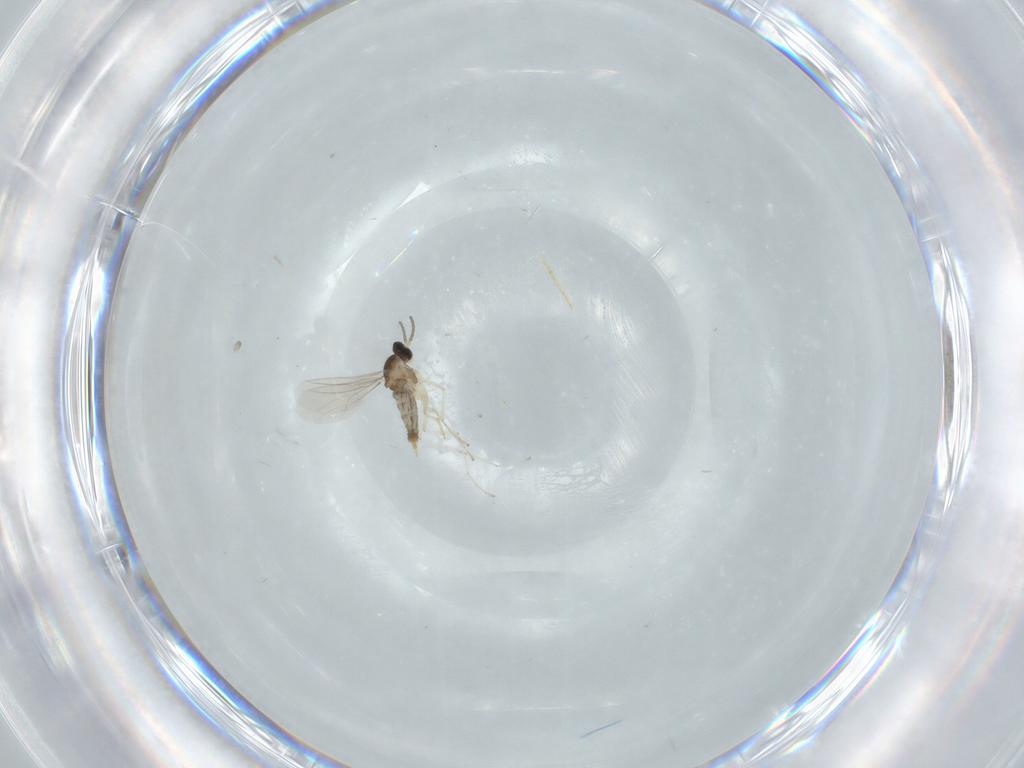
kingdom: Animalia
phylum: Arthropoda
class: Insecta
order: Diptera
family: Cecidomyiidae
